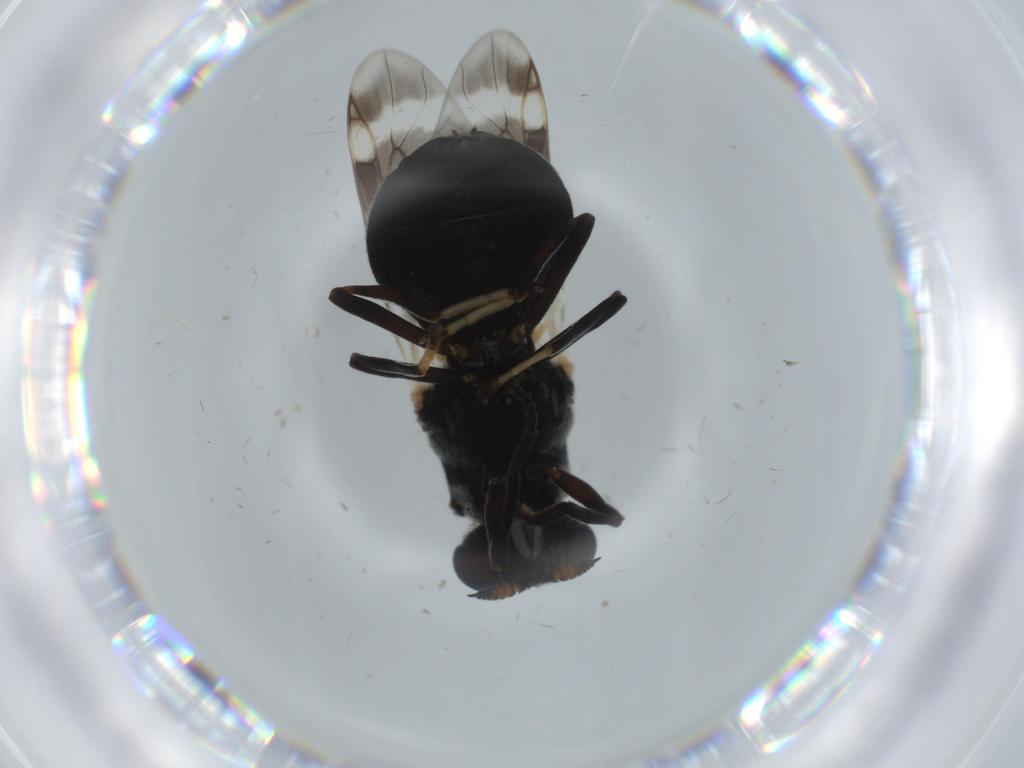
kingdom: Animalia
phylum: Arthropoda
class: Insecta
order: Diptera
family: Stratiomyidae
